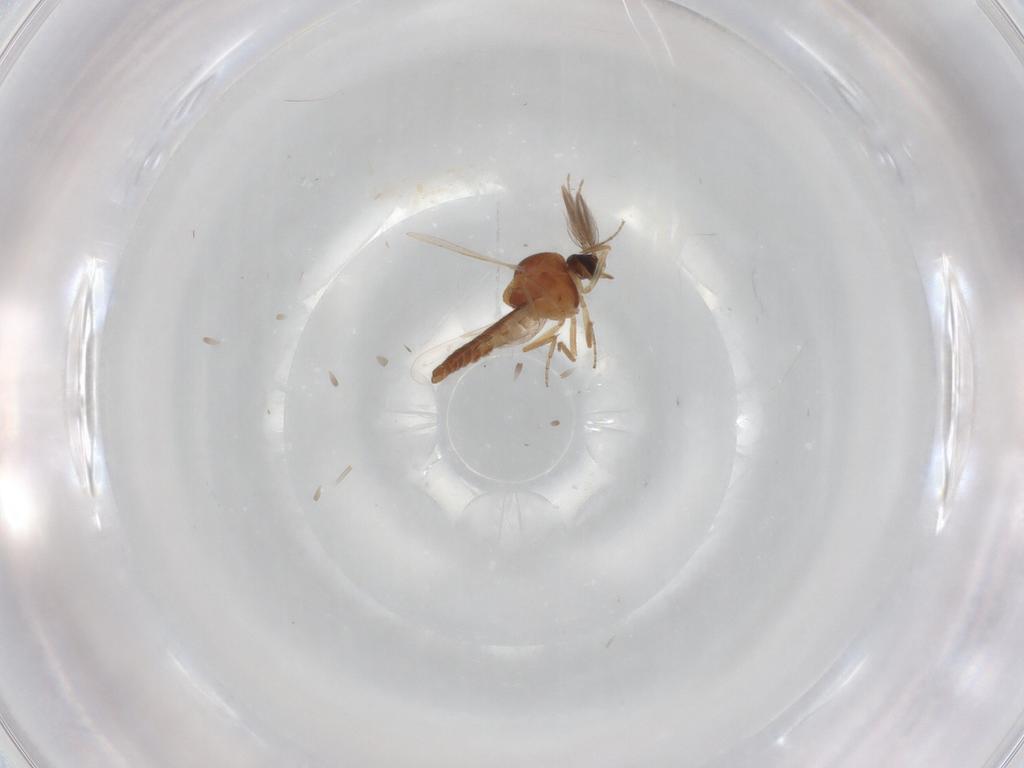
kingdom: Animalia
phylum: Arthropoda
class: Insecta
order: Diptera
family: Ceratopogonidae
